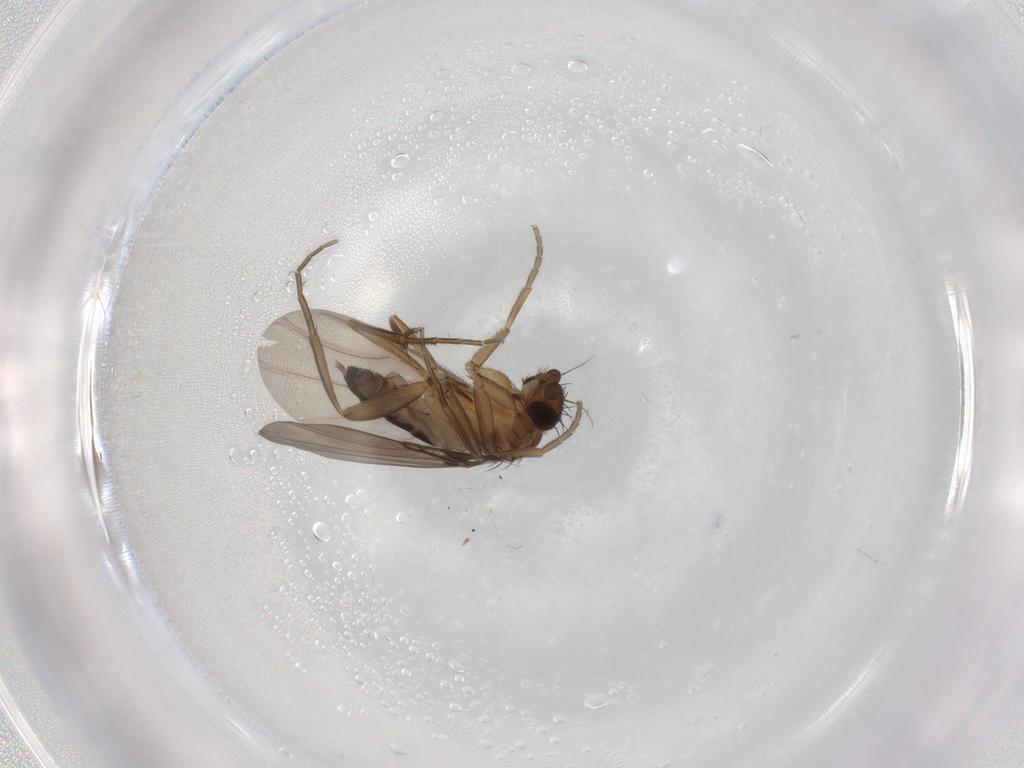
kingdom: Animalia
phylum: Arthropoda
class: Insecta
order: Diptera
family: Phoridae
